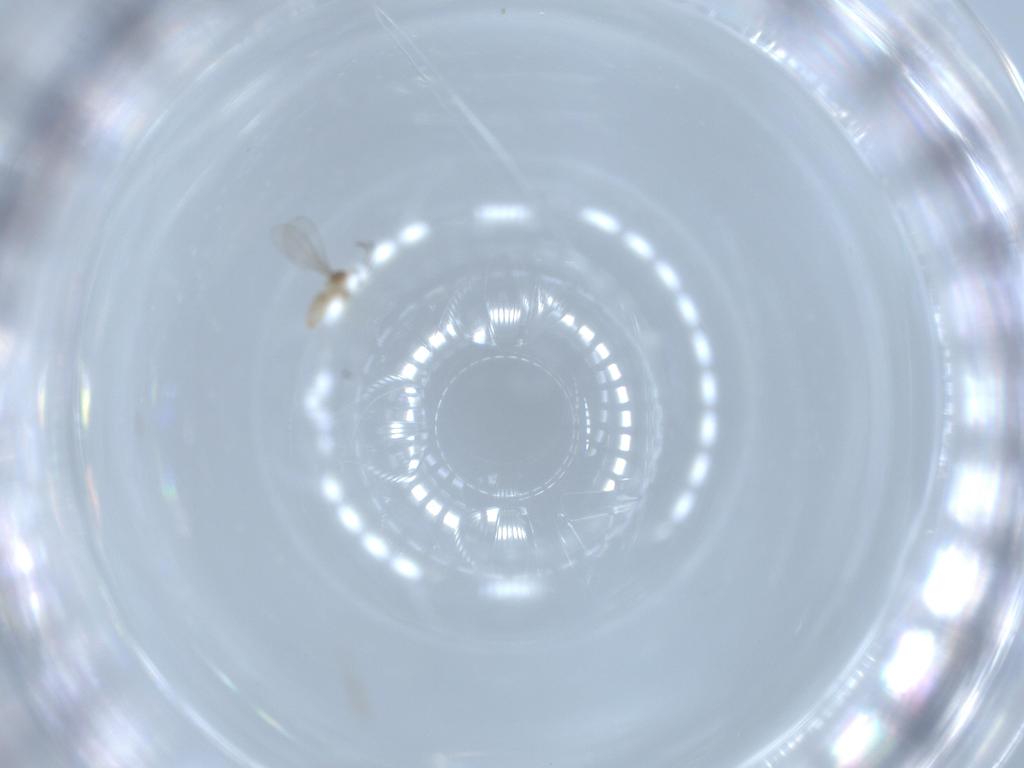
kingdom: Animalia
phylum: Arthropoda
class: Insecta
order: Diptera
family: Cecidomyiidae
